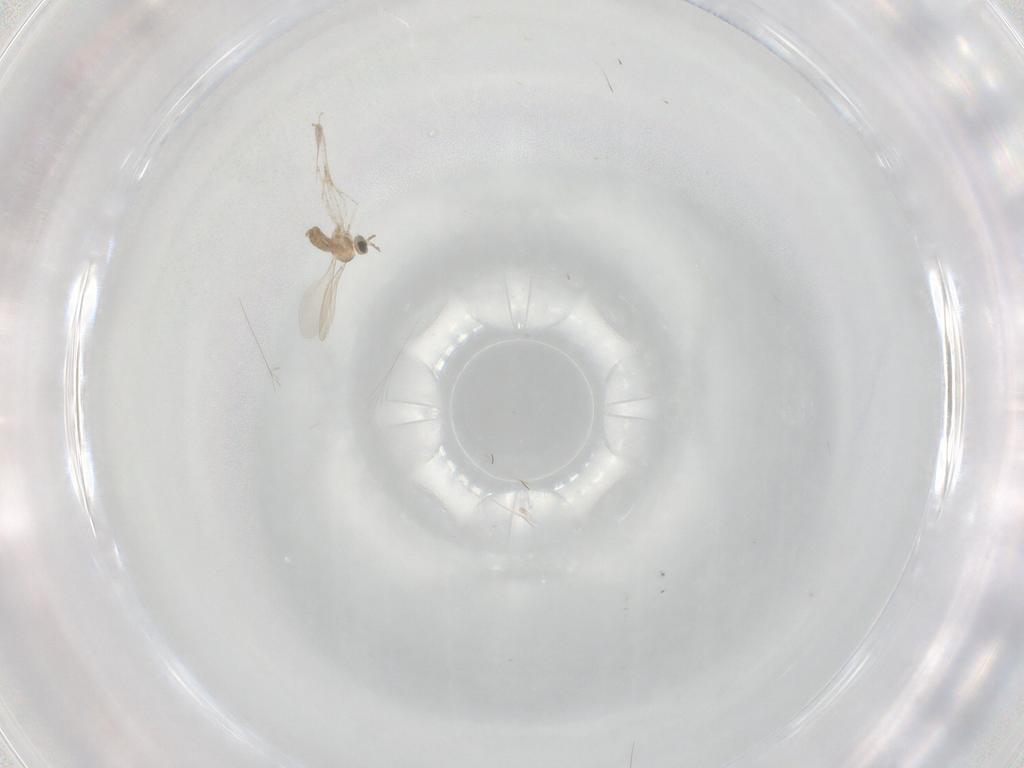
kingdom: Animalia
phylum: Arthropoda
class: Insecta
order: Diptera
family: Cecidomyiidae
